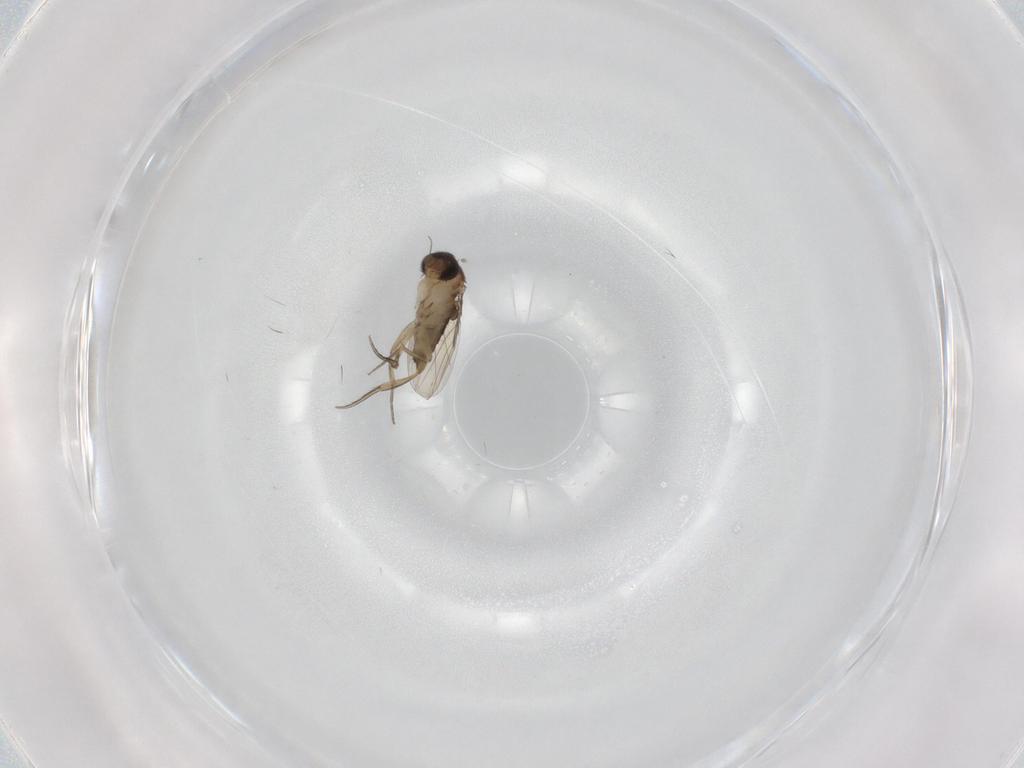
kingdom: Animalia
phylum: Arthropoda
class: Insecta
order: Diptera
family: Phoridae
